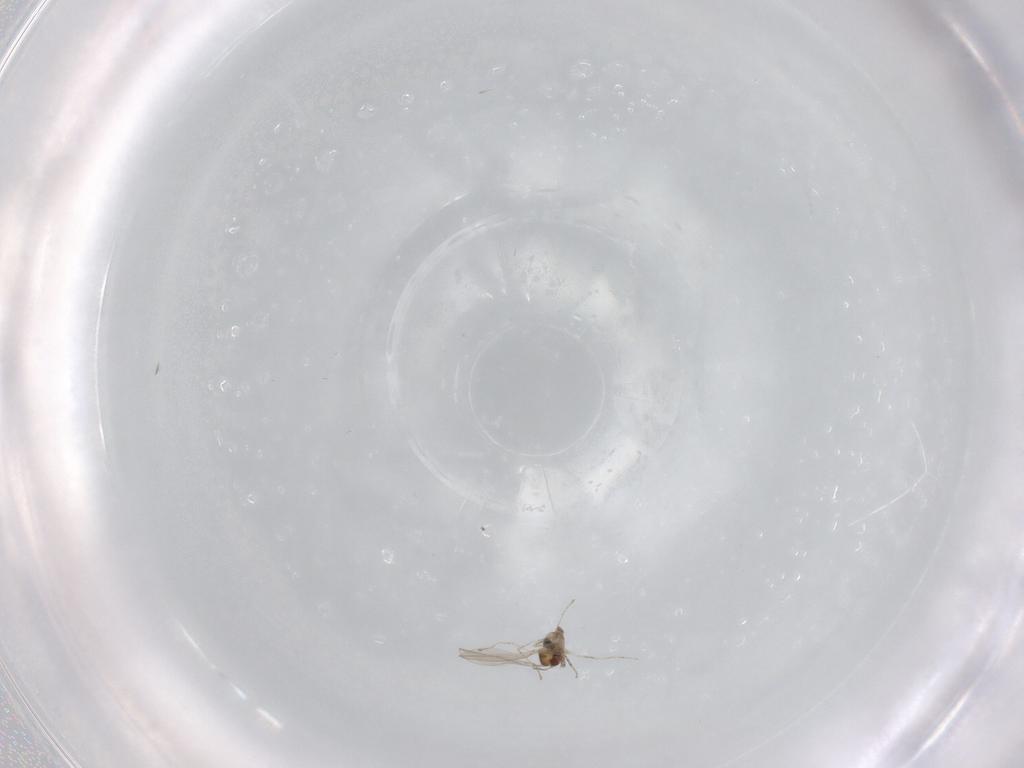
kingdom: Animalia
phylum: Arthropoda
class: Insecta
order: Diptera
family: Cecidomyiidae
